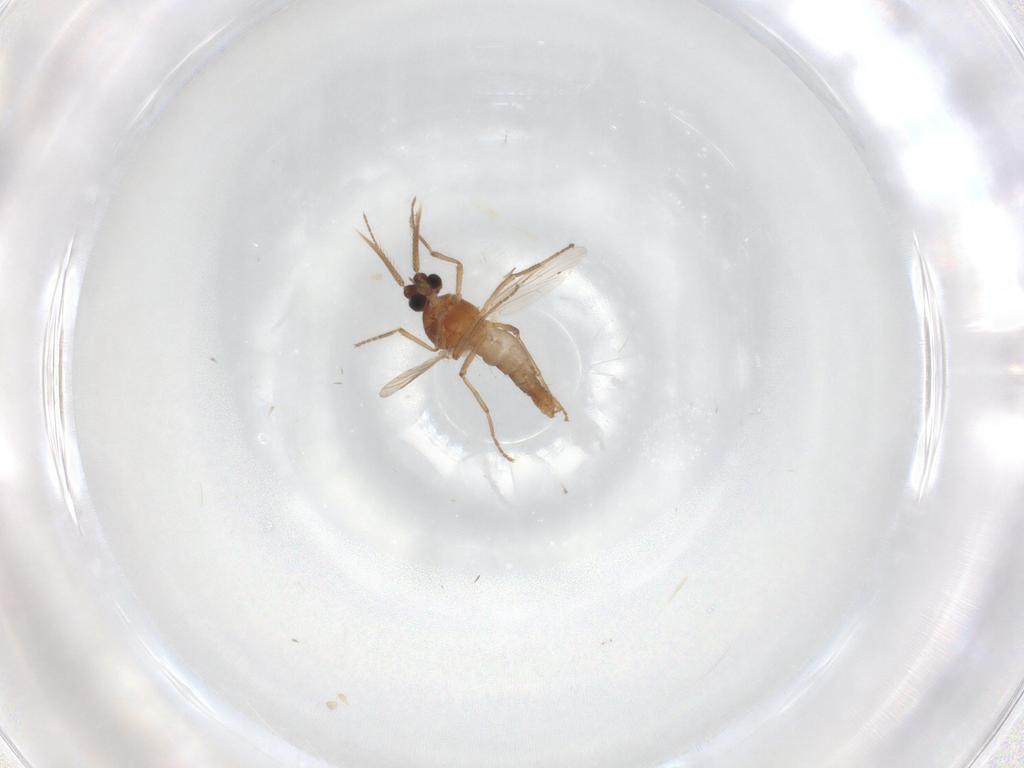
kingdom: Animalia
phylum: Arthropoda
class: Insecta
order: Diptera
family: Ceratopogonidae
